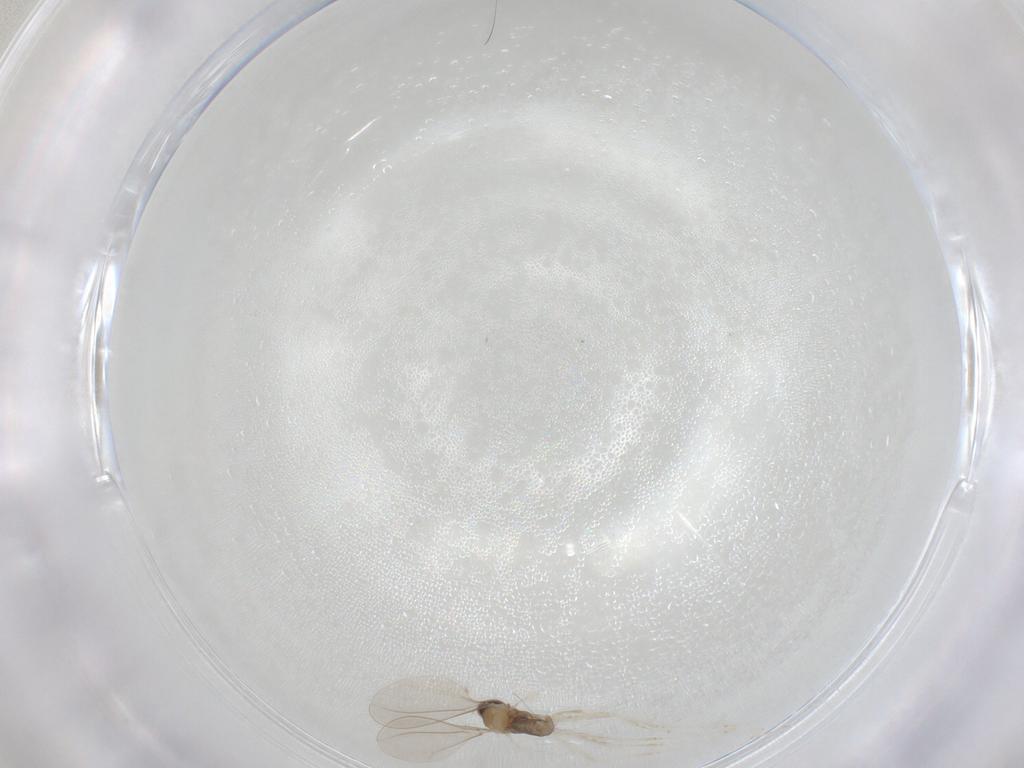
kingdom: Animalia
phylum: Arthropoda
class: Insecta
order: Diptera
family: Cecidomyiidae
